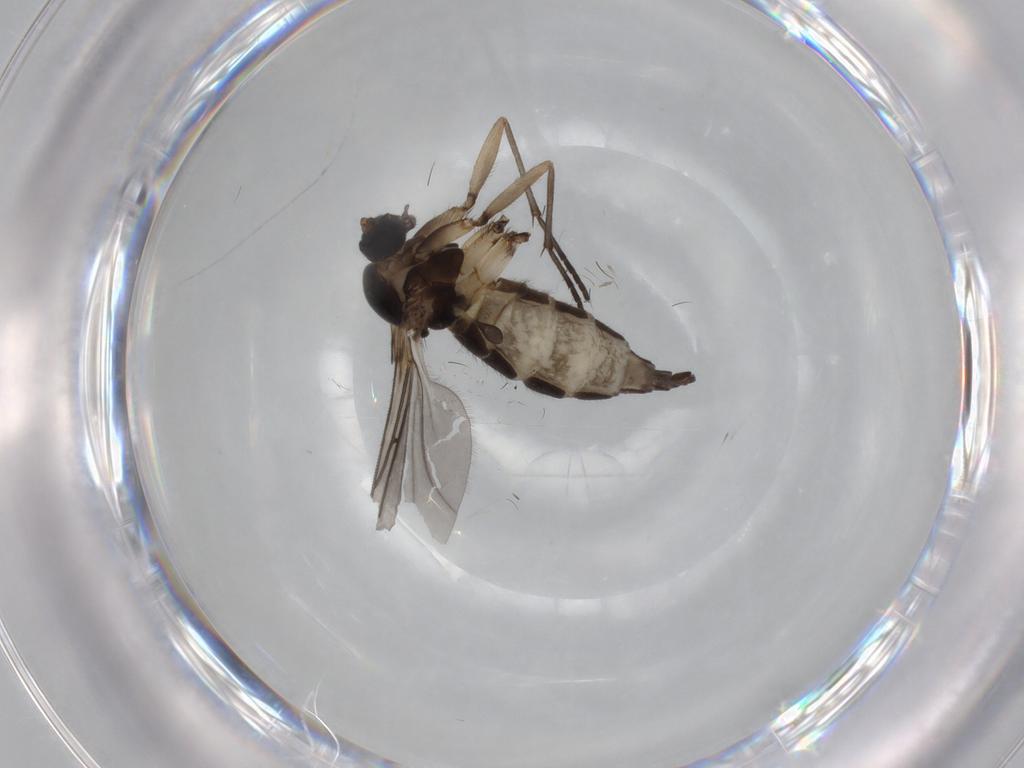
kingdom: Animalia
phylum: Arthropoda
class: Insecta
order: Diptera
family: Sciaridae
